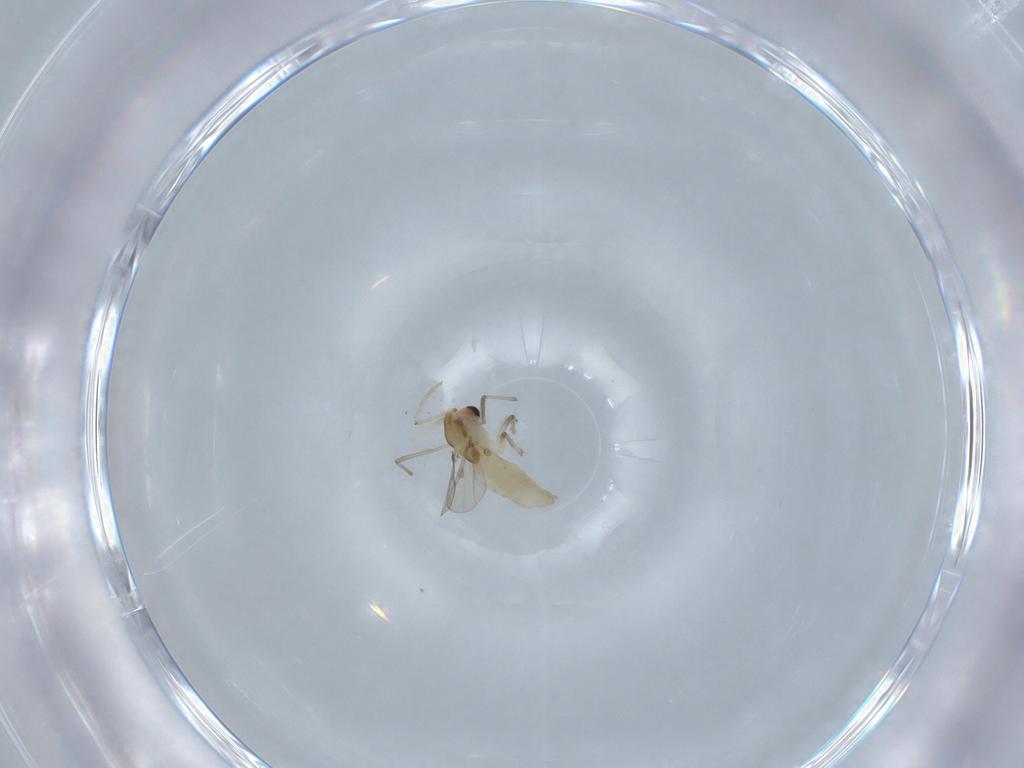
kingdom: Animalia
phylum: Arthropoda
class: Insecta
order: Diptera
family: Chironomidae
